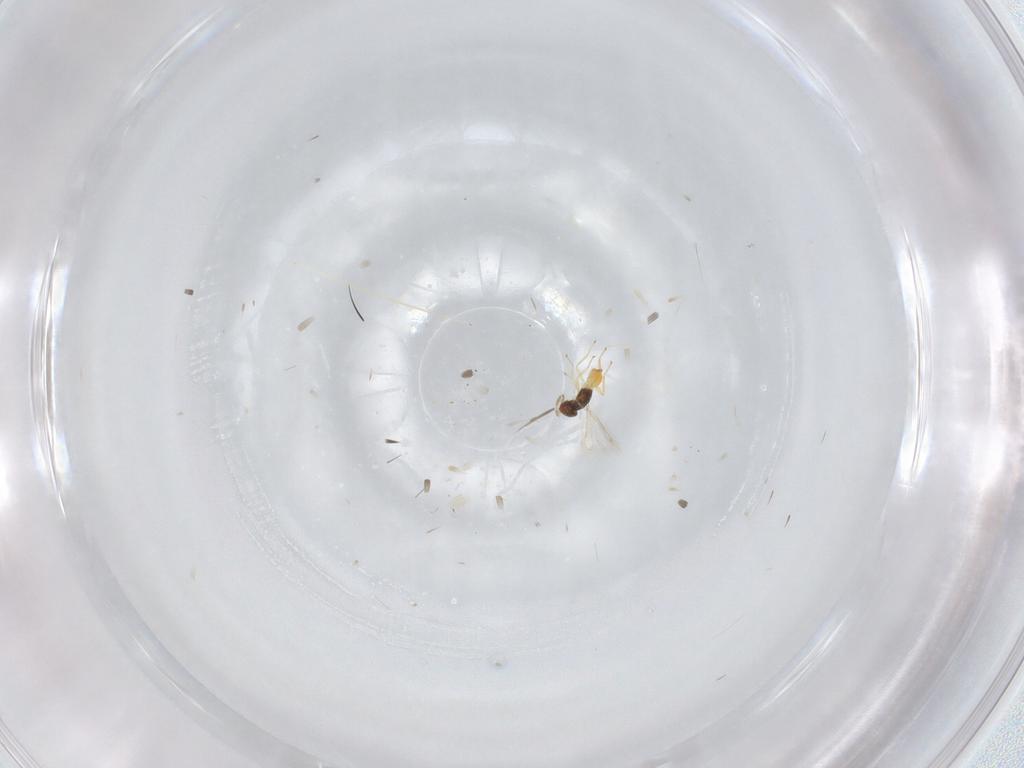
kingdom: Animalia
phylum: Arthropoda
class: Insecta
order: Hymenoptera
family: Eulophidae
